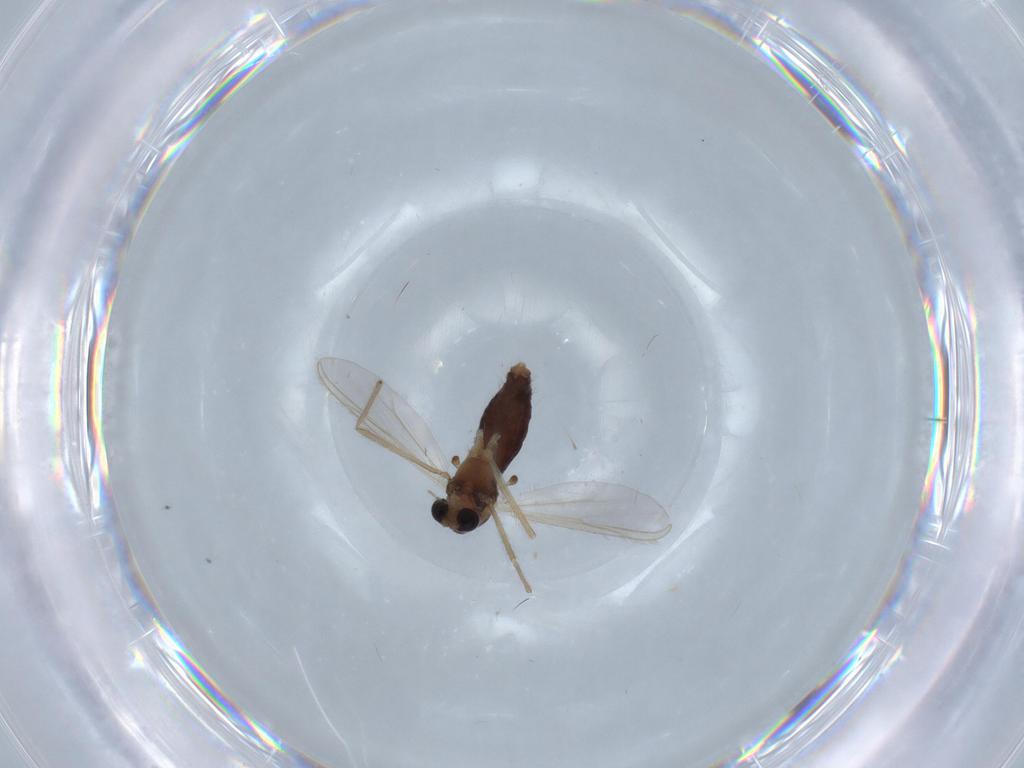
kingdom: Animalia
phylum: Arthropoda
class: Insecta
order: Diptera
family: Chironomidae
